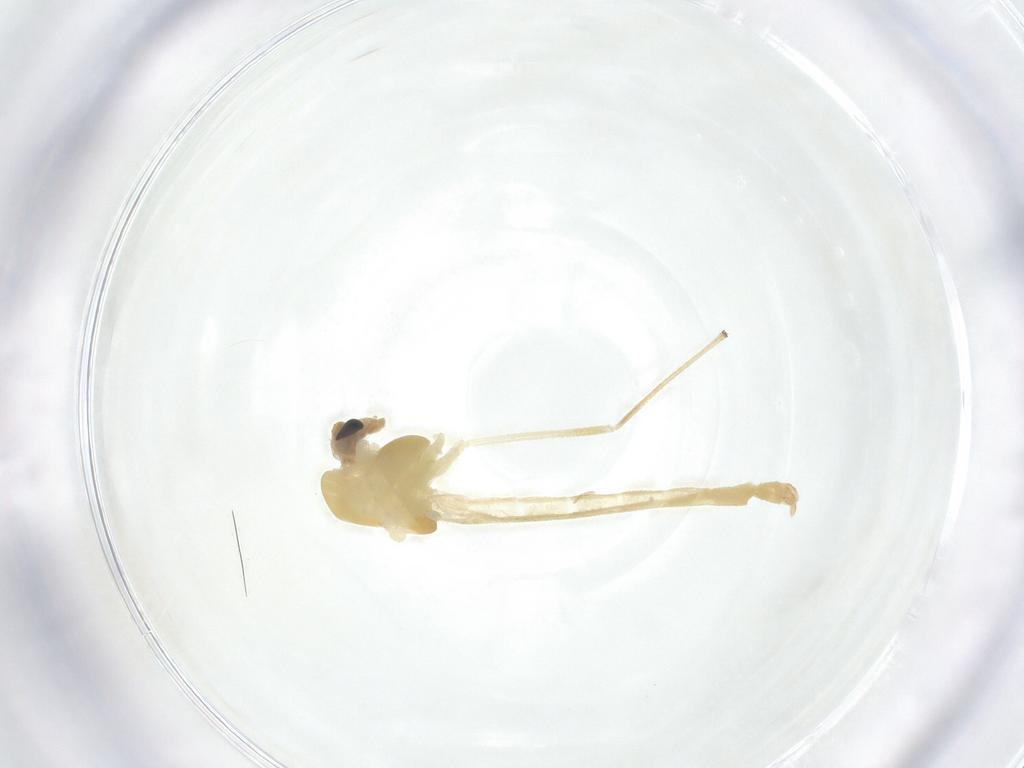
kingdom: Animalia
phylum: Arthropoda
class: Insecta
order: Diptera
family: Chironomidae
